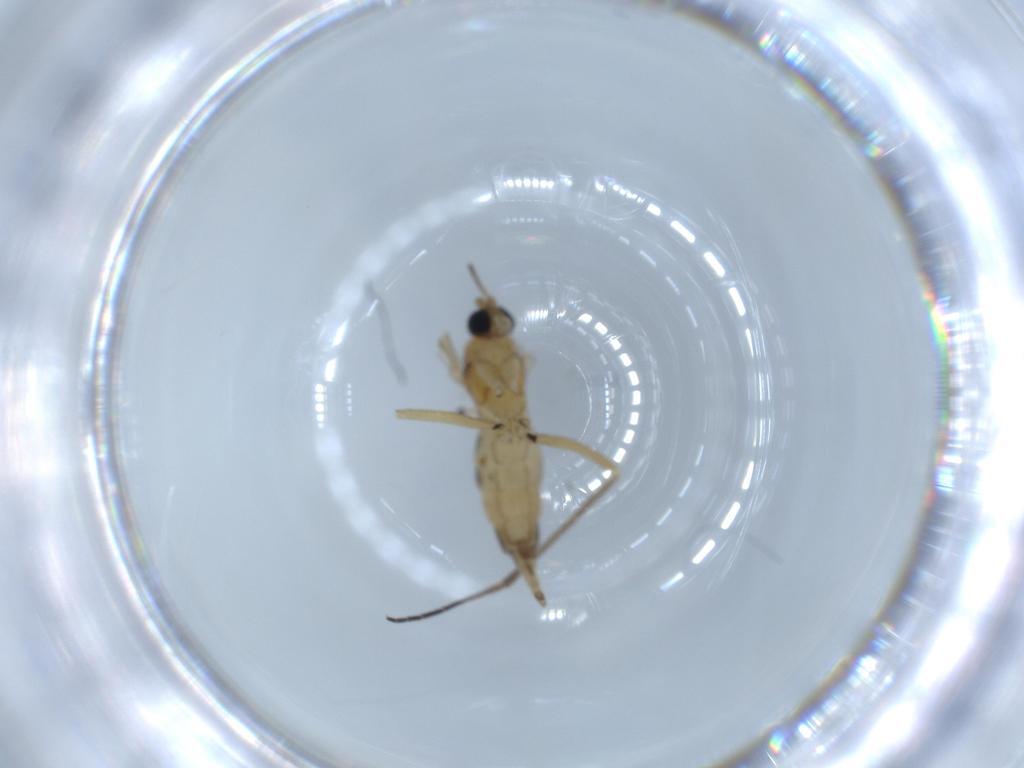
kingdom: Animalia
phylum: Arthropoda
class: Insecta
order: Diptera
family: Sciaridae
